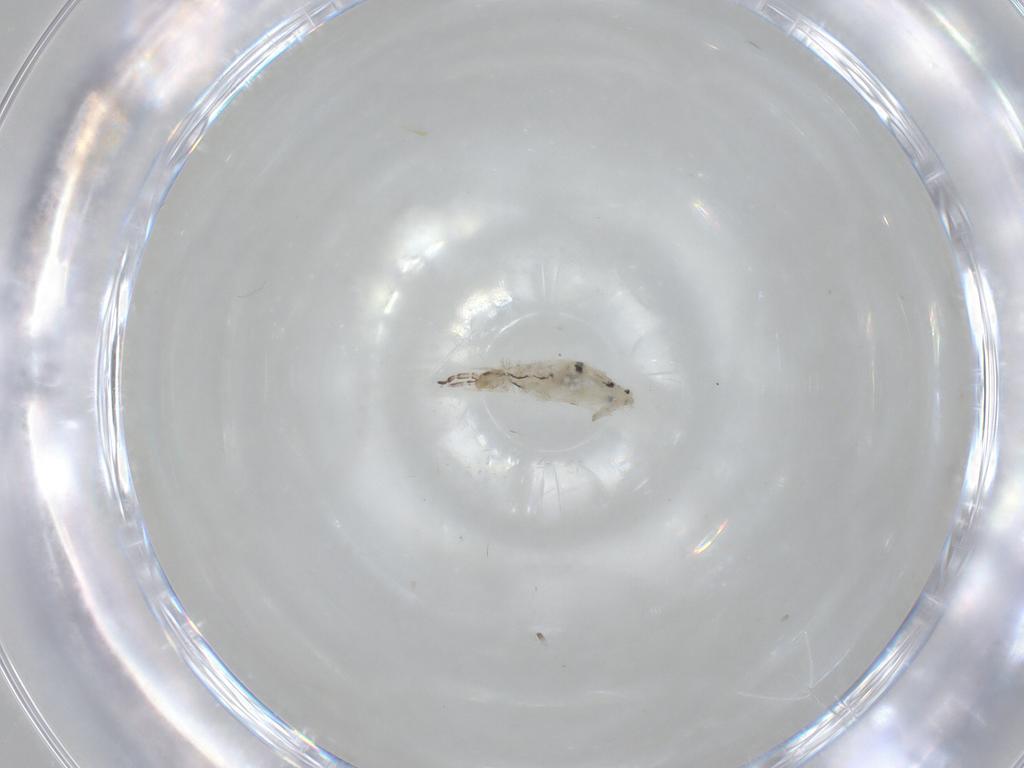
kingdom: Animalia
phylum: Arthropoda
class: Collembola
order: Entomobryomorpha
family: Entomobryidae
